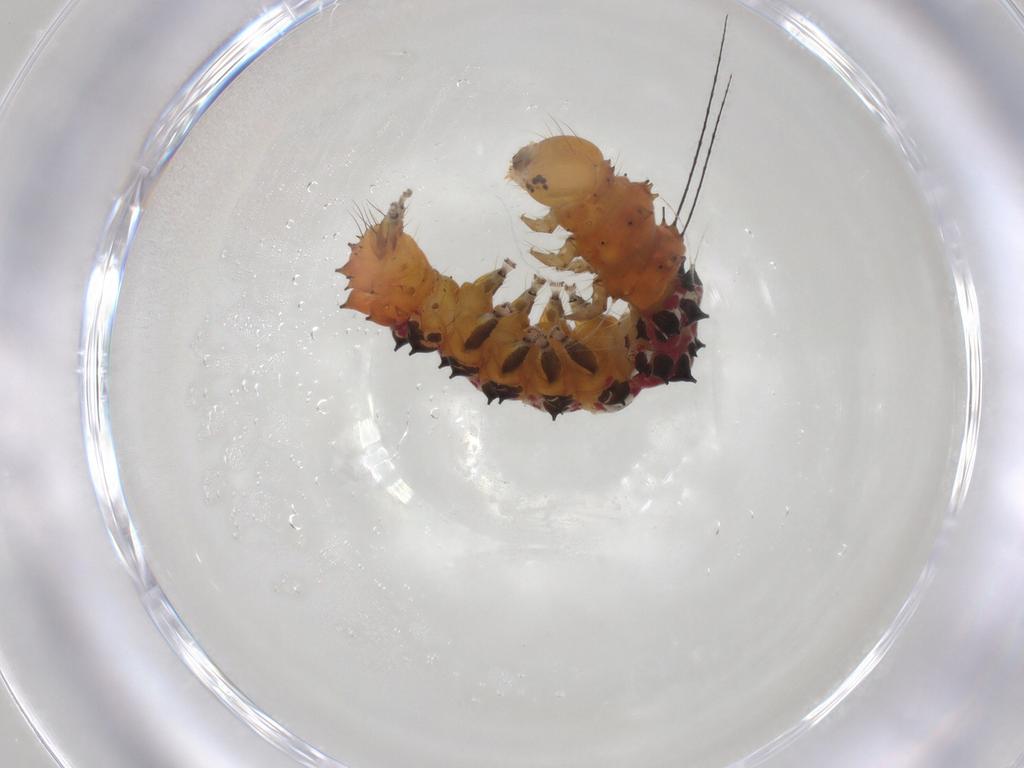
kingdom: Animalia
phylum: Arthropoda
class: Insecta
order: Lepidoptera
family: Erebidae
